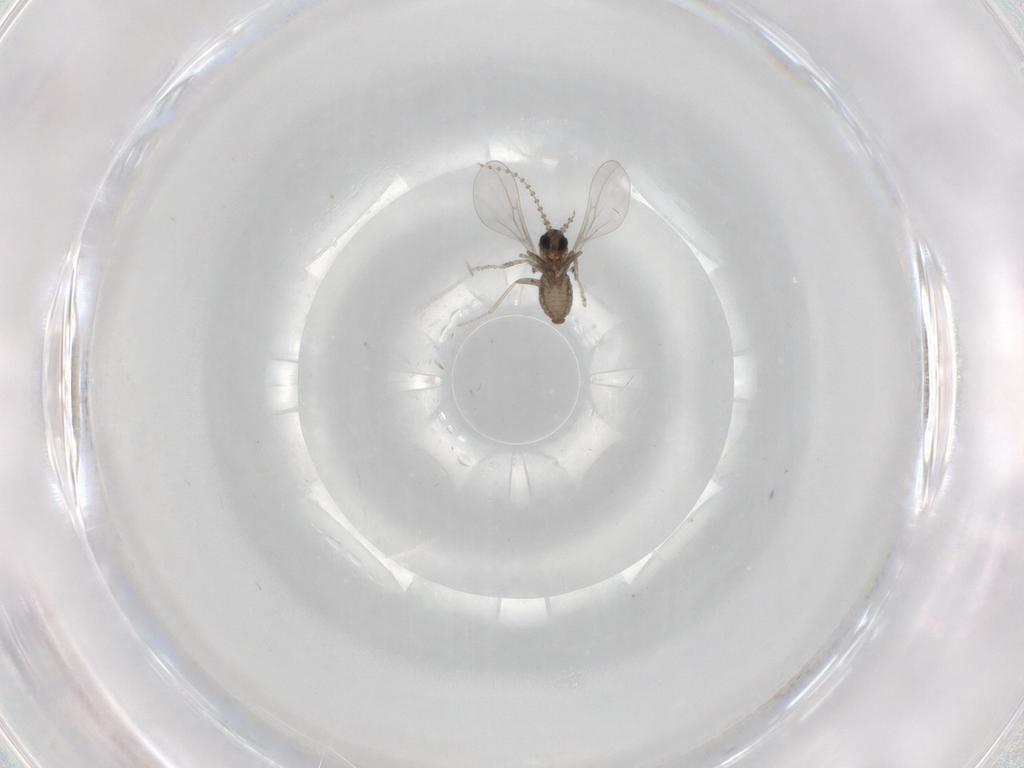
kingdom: Animalia
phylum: Arthropoda
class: Insecta
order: Diptera
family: Cecidomyiidae
